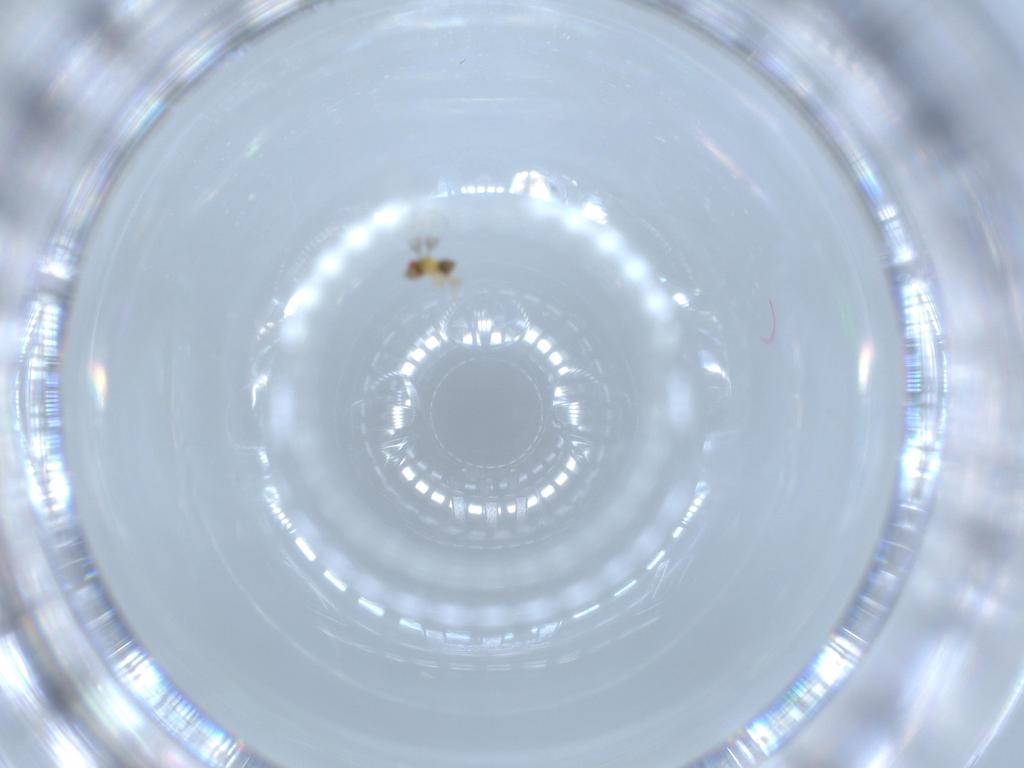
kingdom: Animalia
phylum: Arthropoda
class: Insecta
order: Hymenoptera
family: Trichogrammatidae
